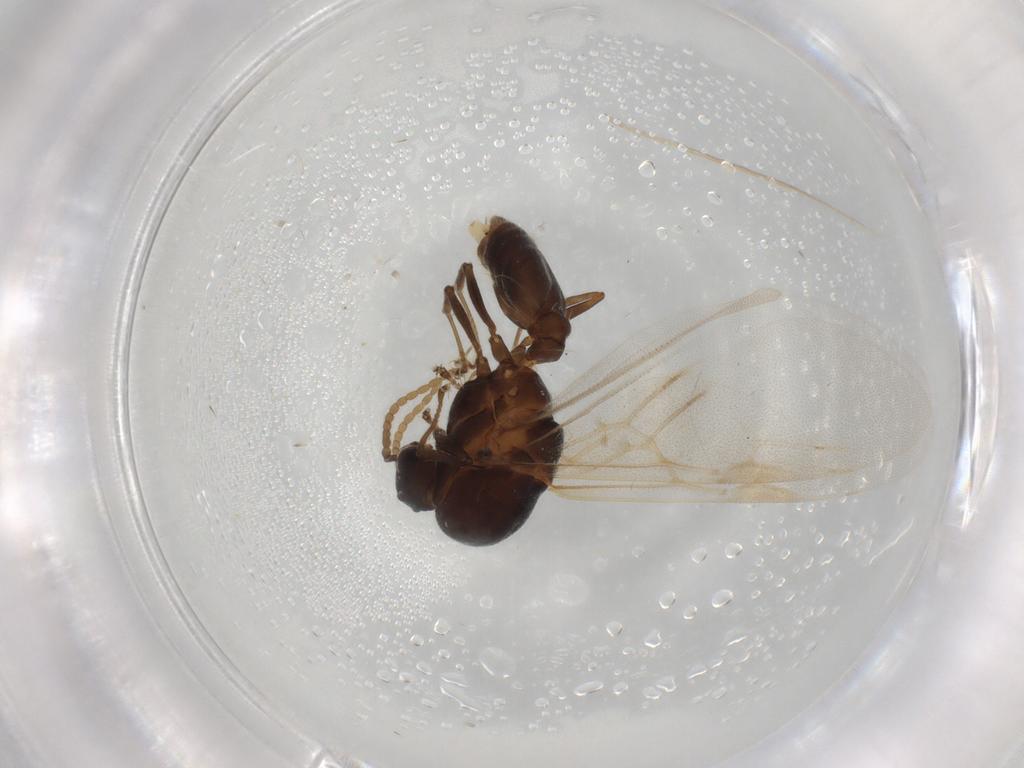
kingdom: Animalia
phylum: Arthropoda
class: Insecta
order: Hymenoptera
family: Formicidae
